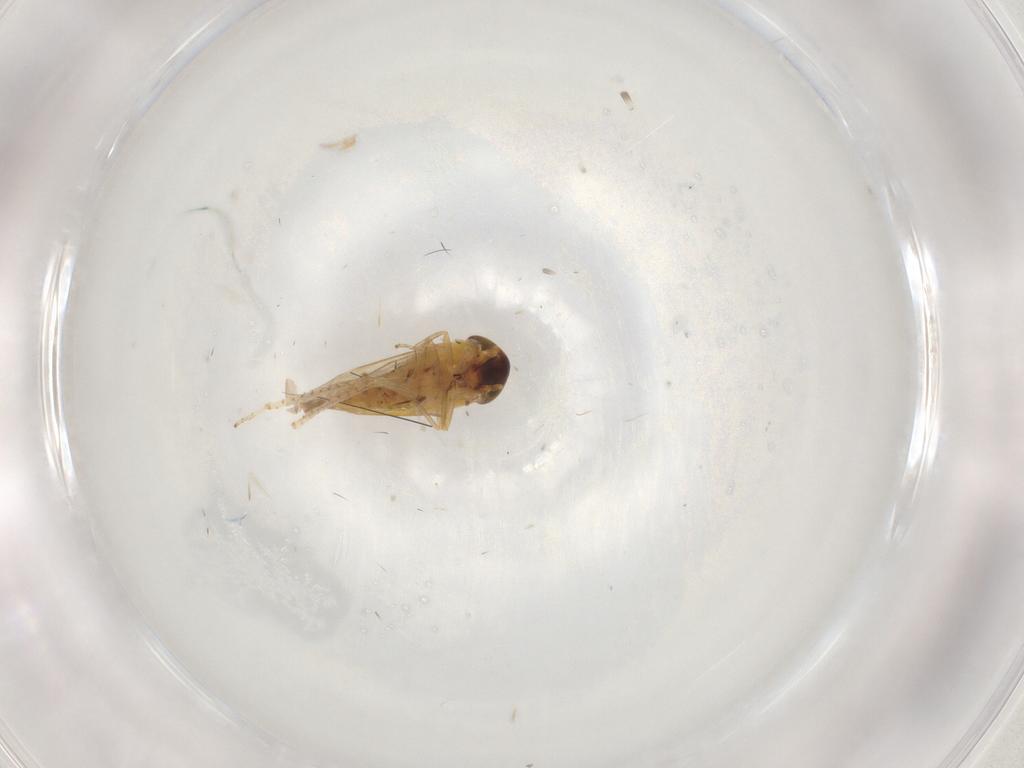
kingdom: Animalia
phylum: Arthropoda
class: Insecta
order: Hemiptera
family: Cicadellidae
